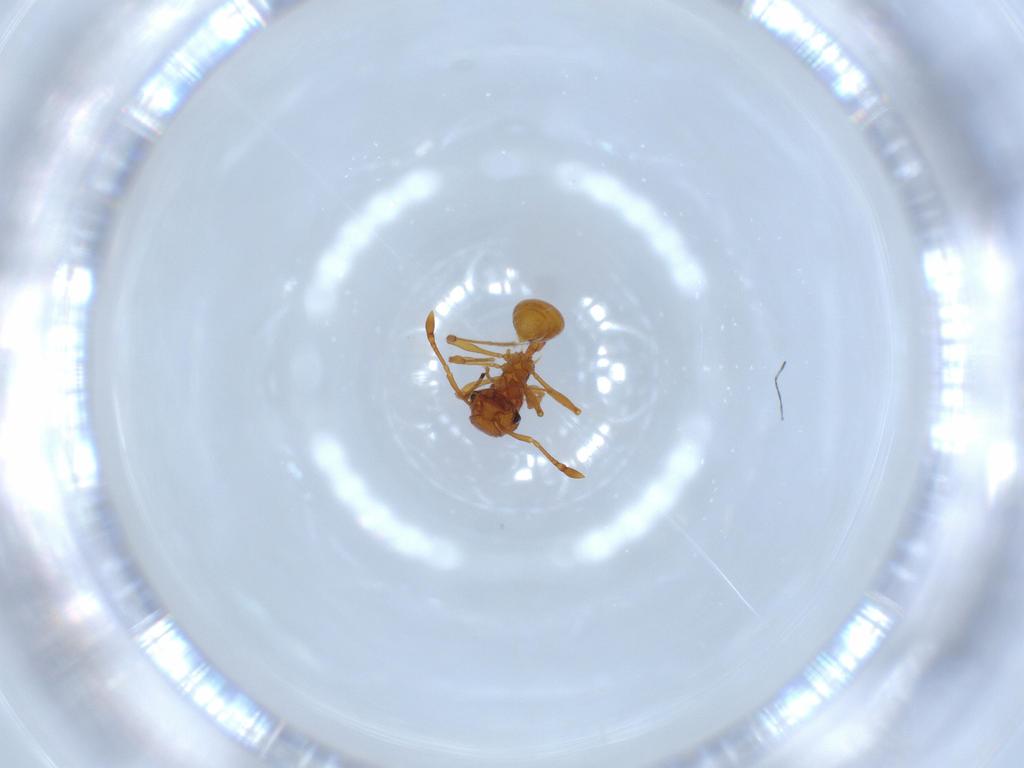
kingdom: Animalia
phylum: Arthropoda
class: Insecta
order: Hymenoptera
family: Formicidae
